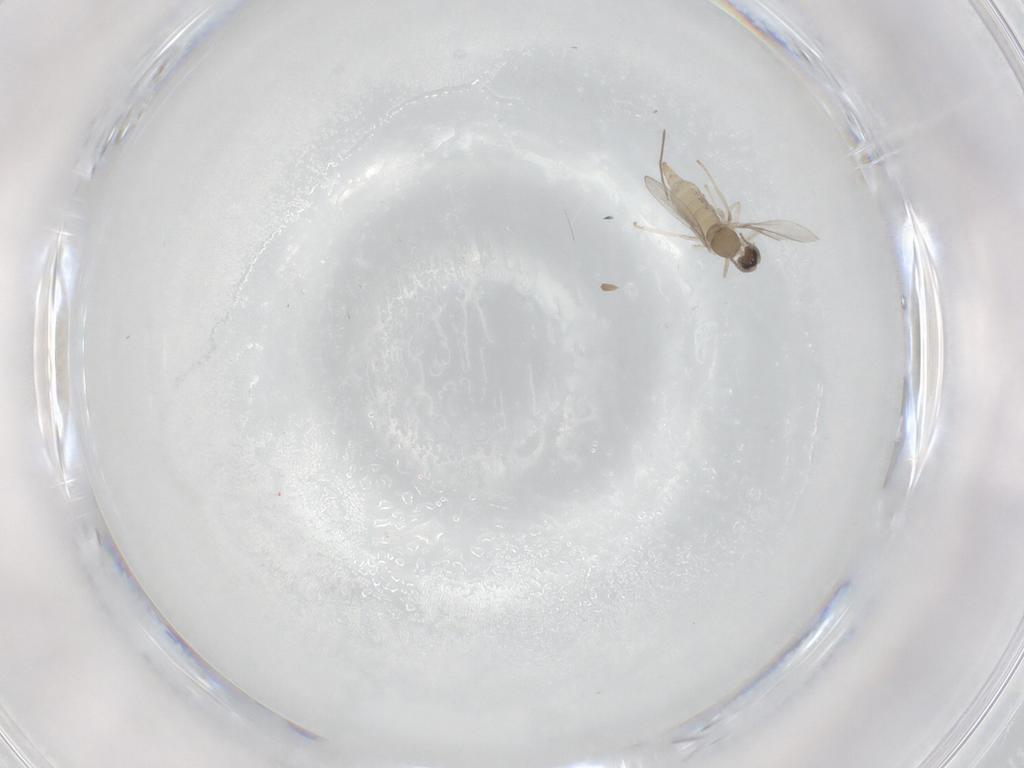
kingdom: Animalia
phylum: Arthropoda
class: Insecta
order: Diptera
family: Chironomidae
